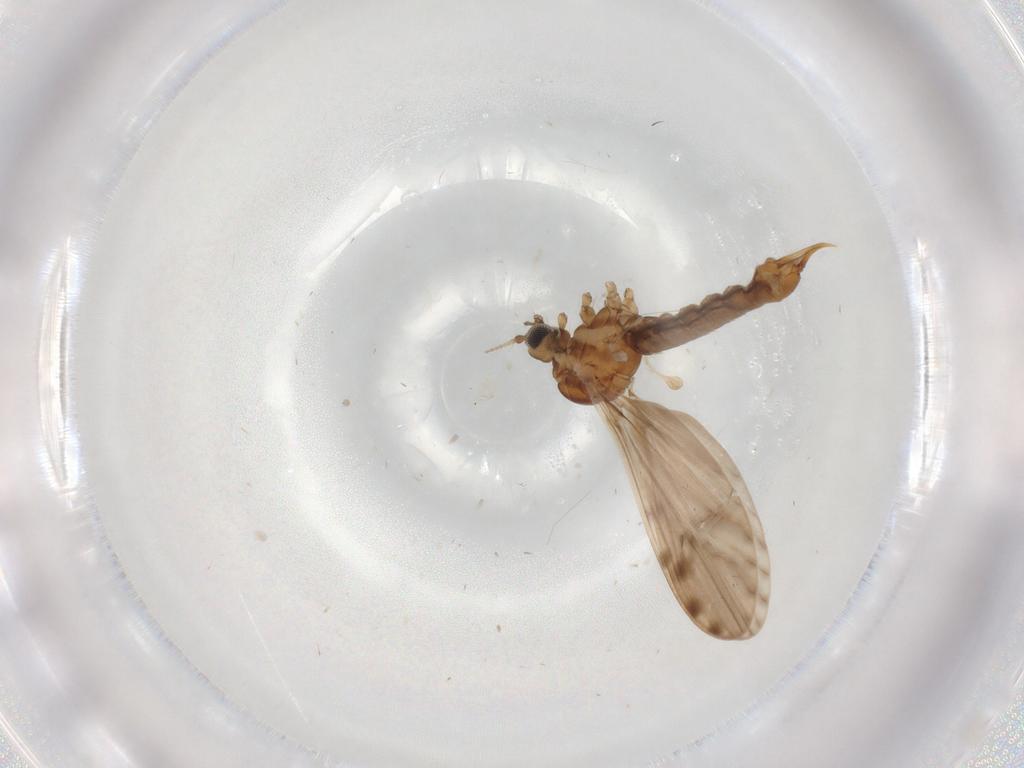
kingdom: Animalia
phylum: Arthropoda
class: Insecta
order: Diptera
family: Limoniidae
